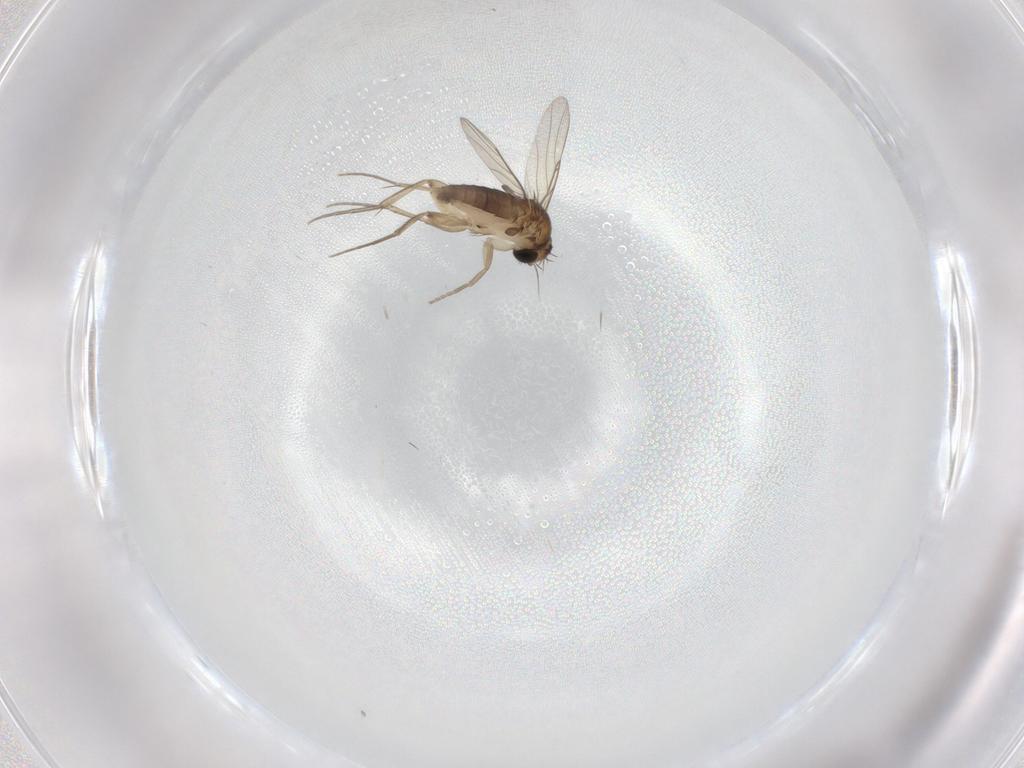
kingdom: Animalia
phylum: Arthropoda
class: Insecta
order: Diptera
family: Phoridae
